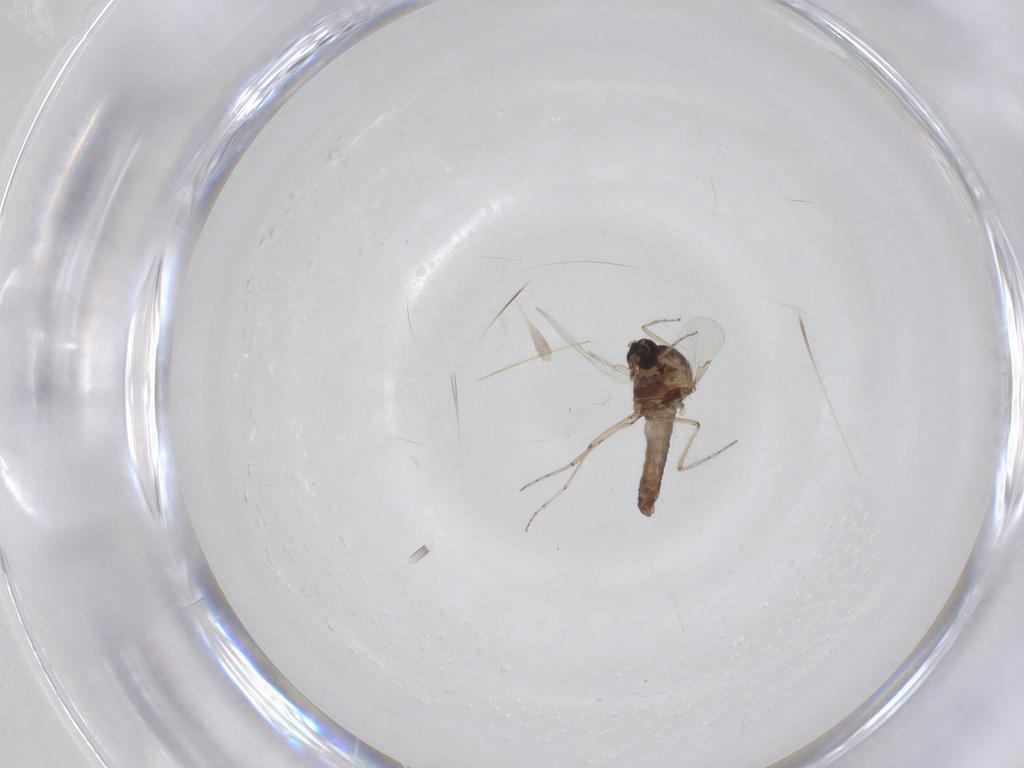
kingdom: Animalia
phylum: Arthropoda
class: Insecta
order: Diptera
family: Ceratopogonidae
